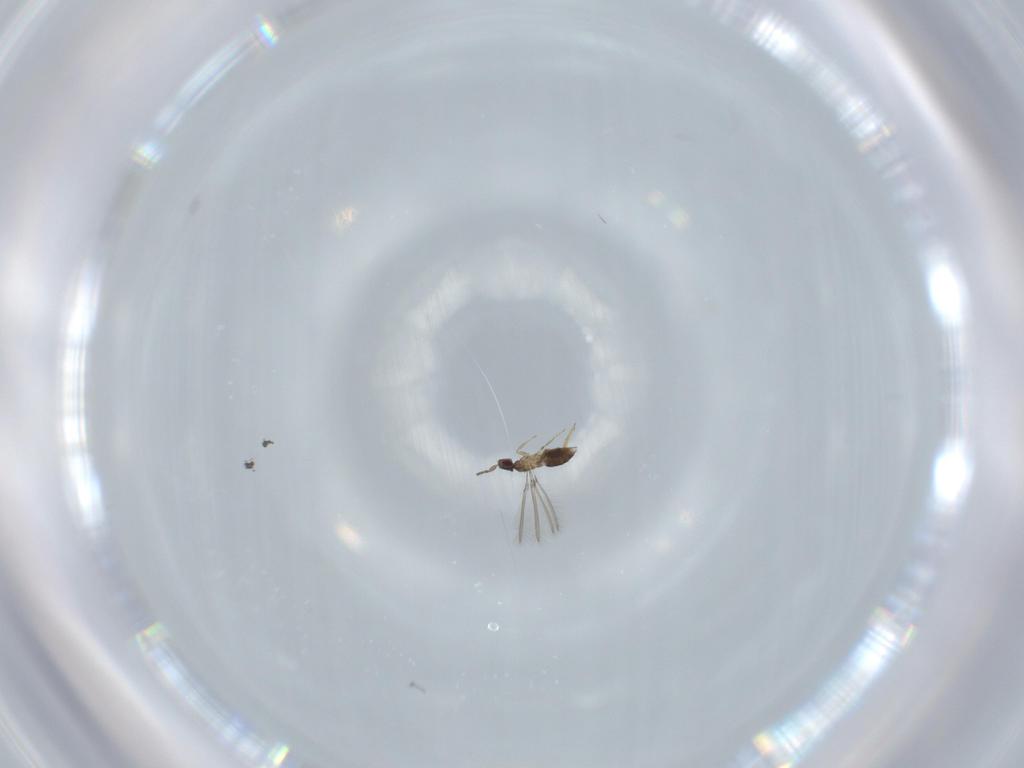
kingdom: Animalia
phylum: Arthropoda
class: Insecta
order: Hymenoptera
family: Mymaridae
